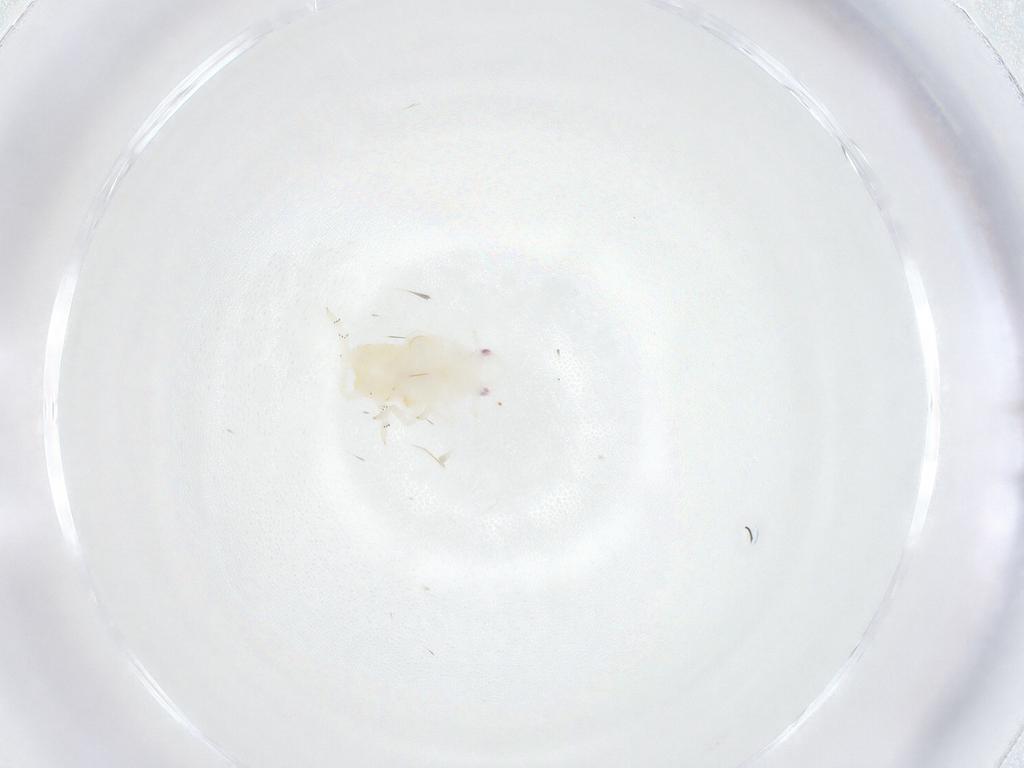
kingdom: Animalia
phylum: Arthropoda
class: Insecta
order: Hemiptera
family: Flatidae
